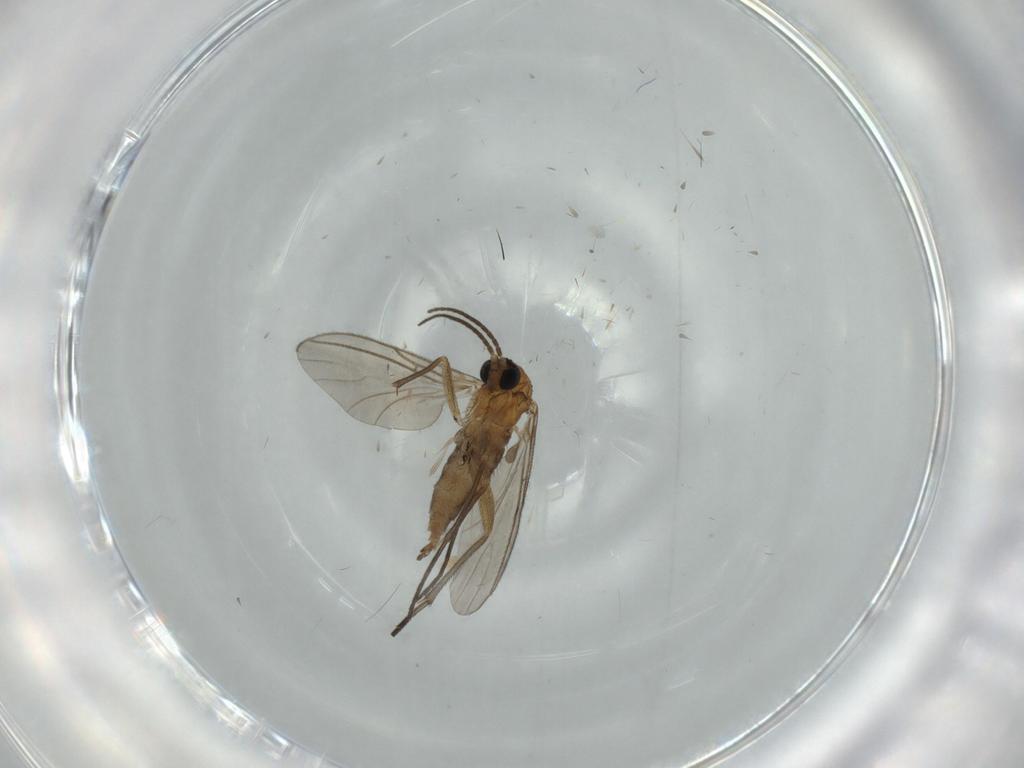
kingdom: Animalia
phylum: Arthropoda
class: Insecta
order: Diptera
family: Sciaridae
